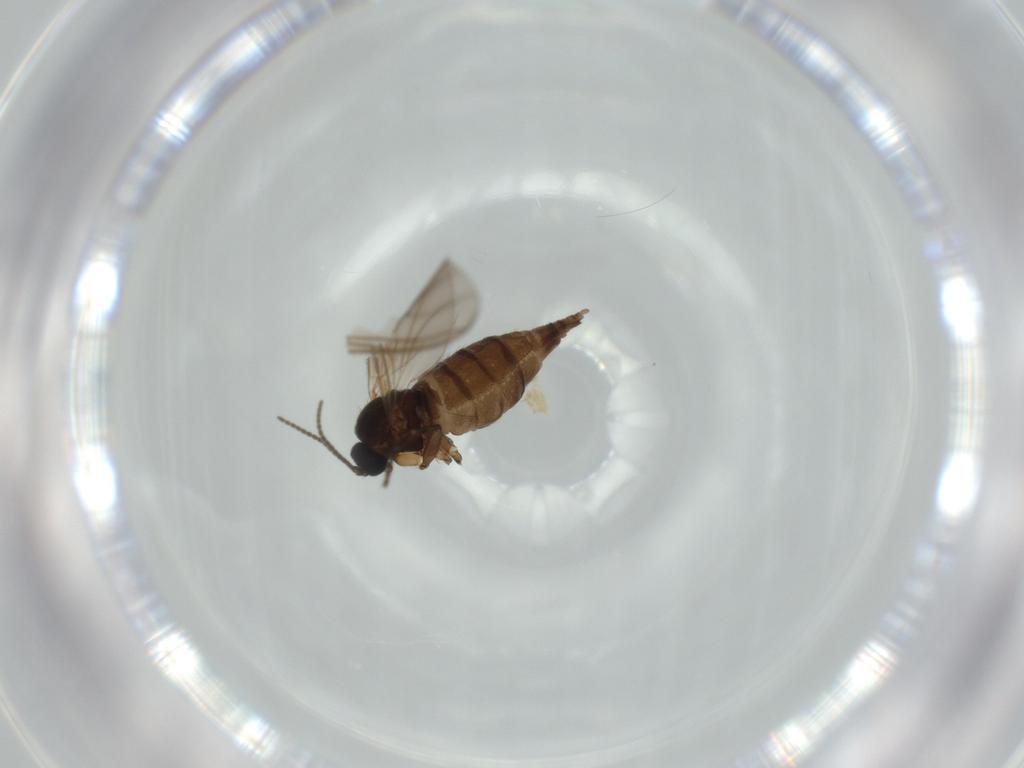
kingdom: Animalia
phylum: Arthropoda
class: Insecta
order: Diptera
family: Sciaridae
